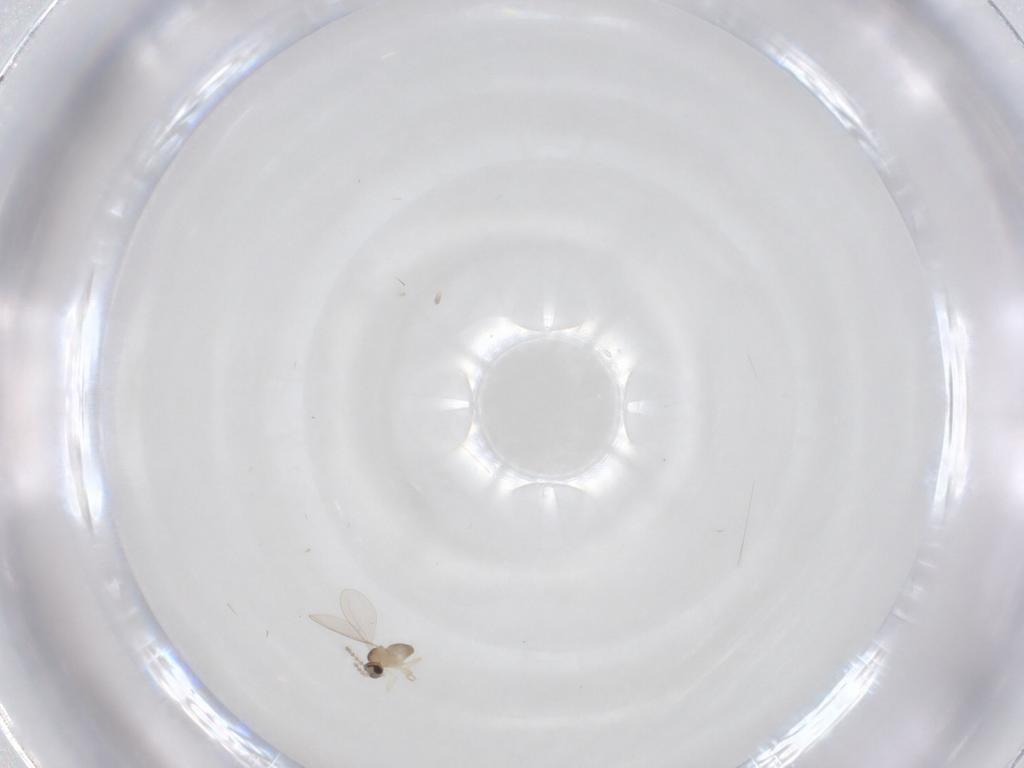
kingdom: Animalia
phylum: Arthropoda
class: Insecta
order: Diptera
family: Cecidomyiidae
